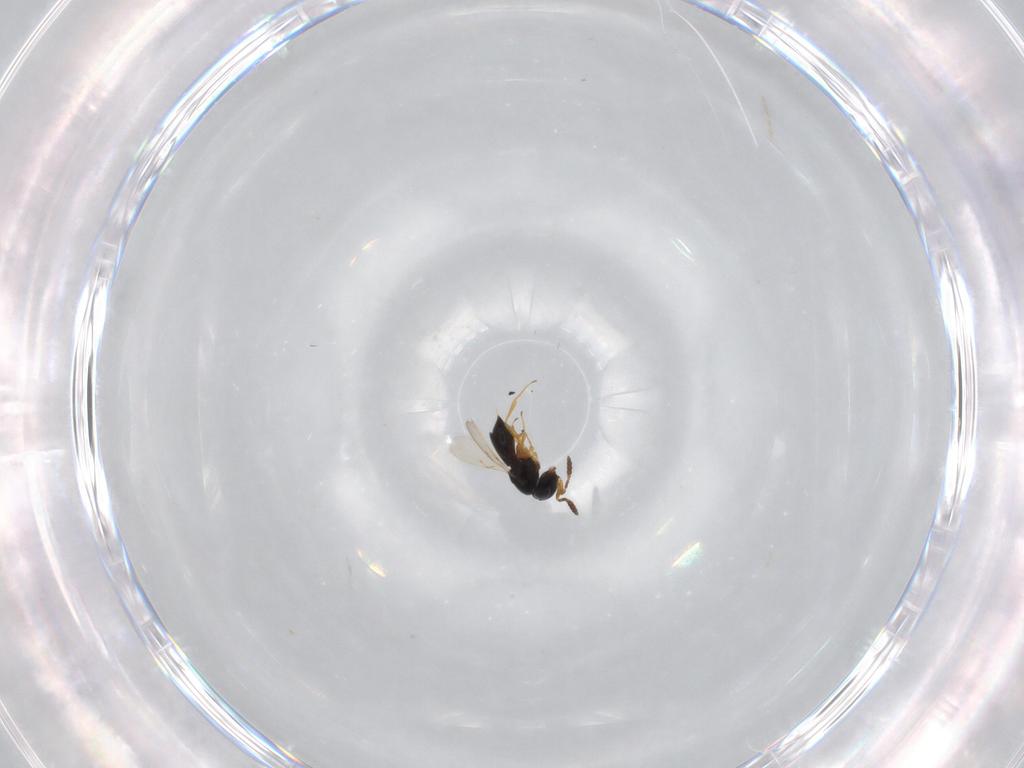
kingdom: Animalia
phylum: Arthropoda
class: Insecta
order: Hymenoptera
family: Scelionidae
